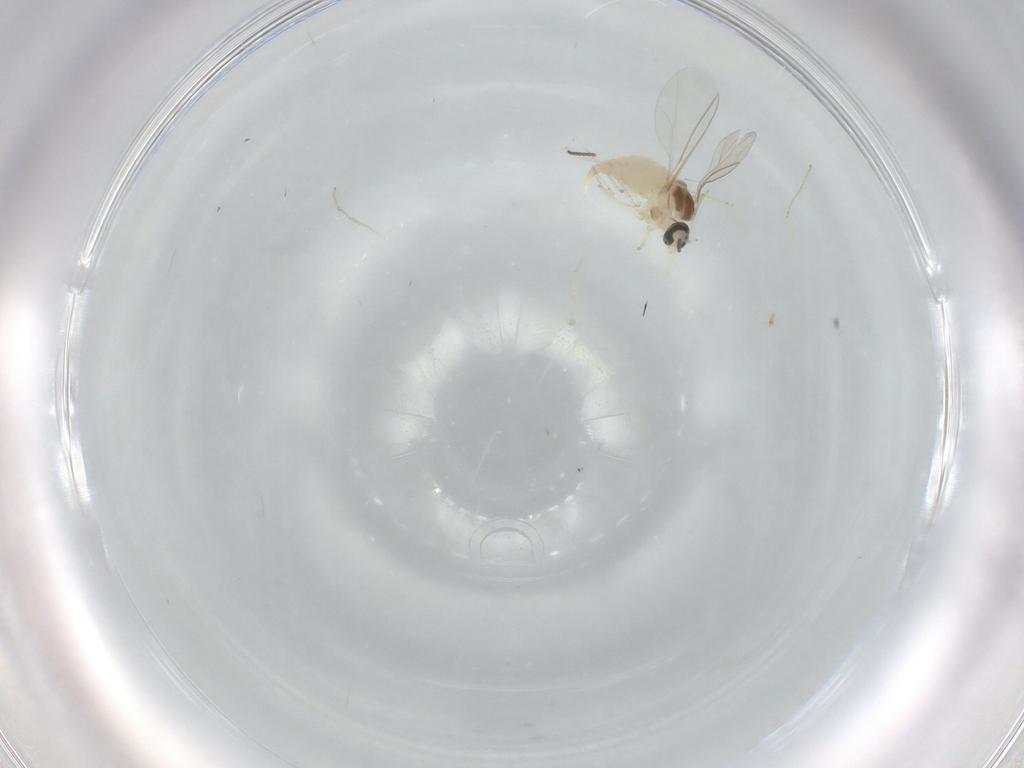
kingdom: Animalia
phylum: Arthropoda
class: Insecta
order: Diptera
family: Cecidomyiidae
